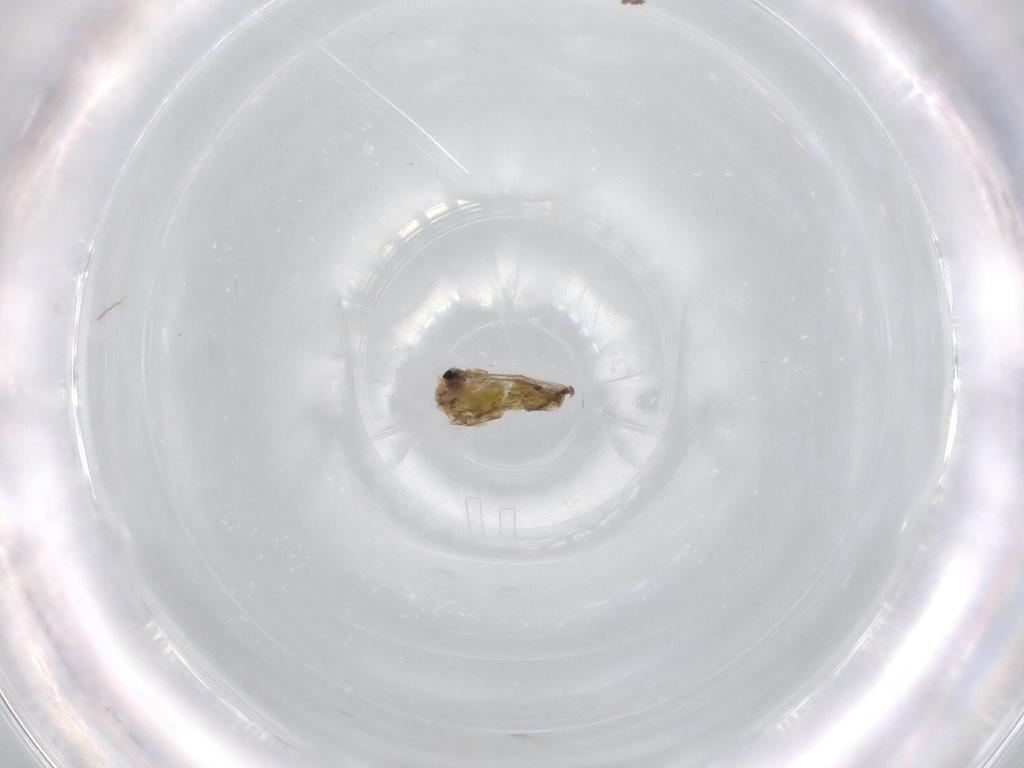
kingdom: Animalia
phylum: Arthropoda
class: Insecta
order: Diptera
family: Chironomidae
